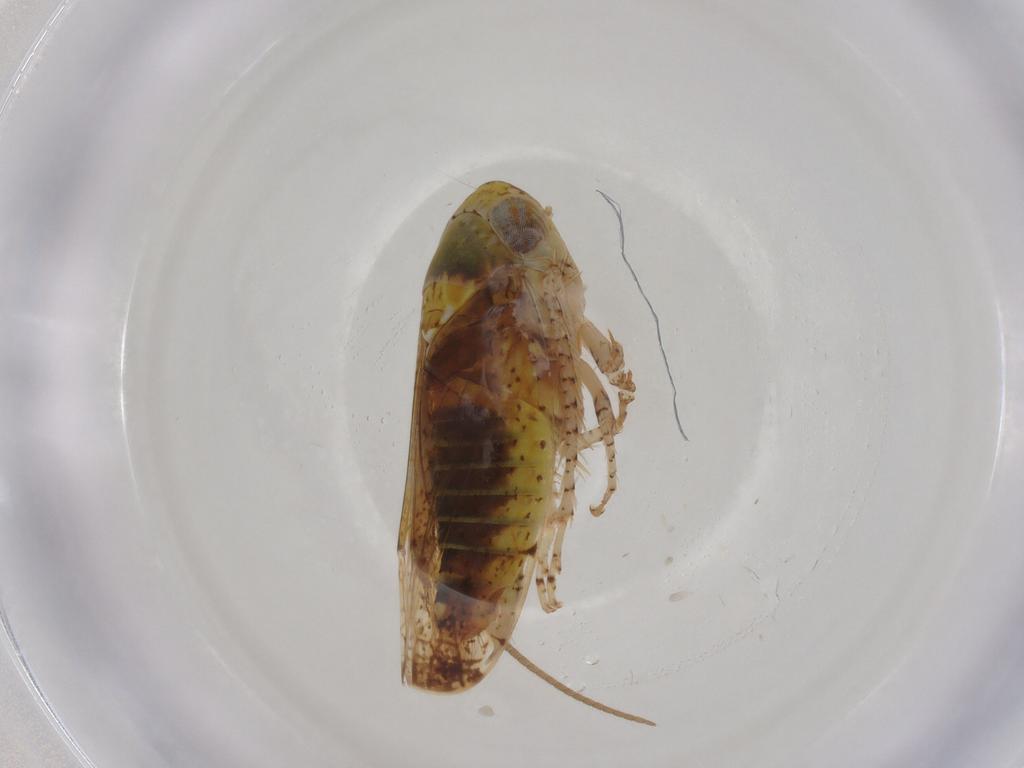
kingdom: Animalia
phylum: Arthropoda
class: Insecta
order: Hemiptera
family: Cicadellidae
